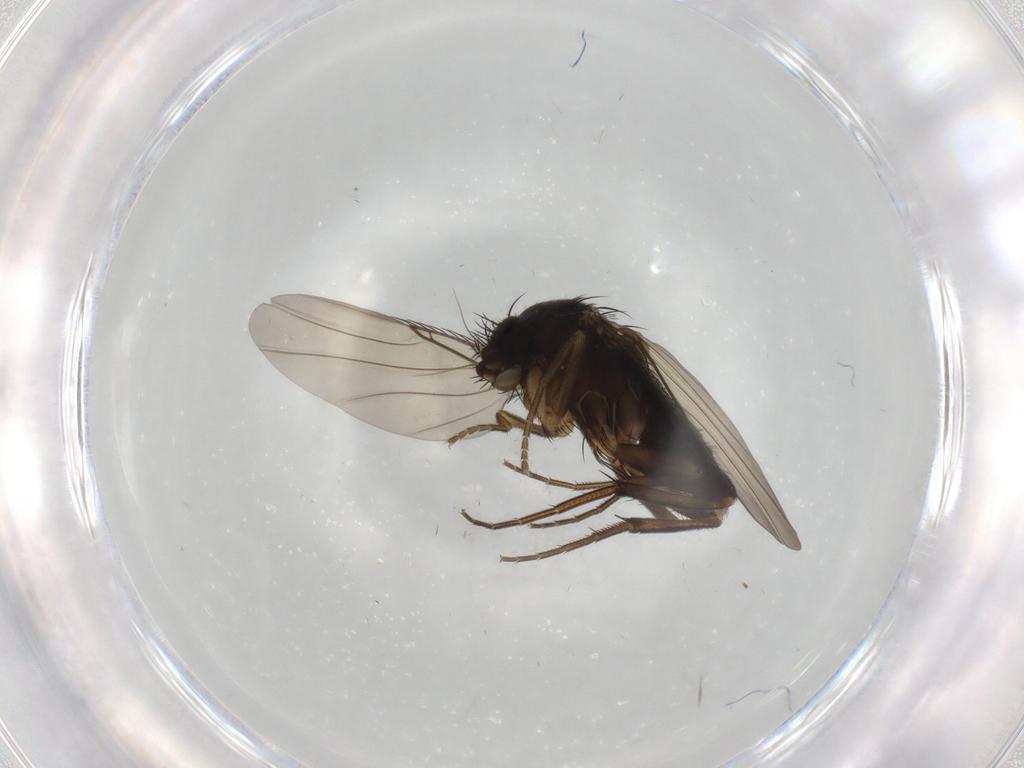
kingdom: Animalia
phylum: Arthropoda
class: Insecta
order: Diptera
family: Phoridae
